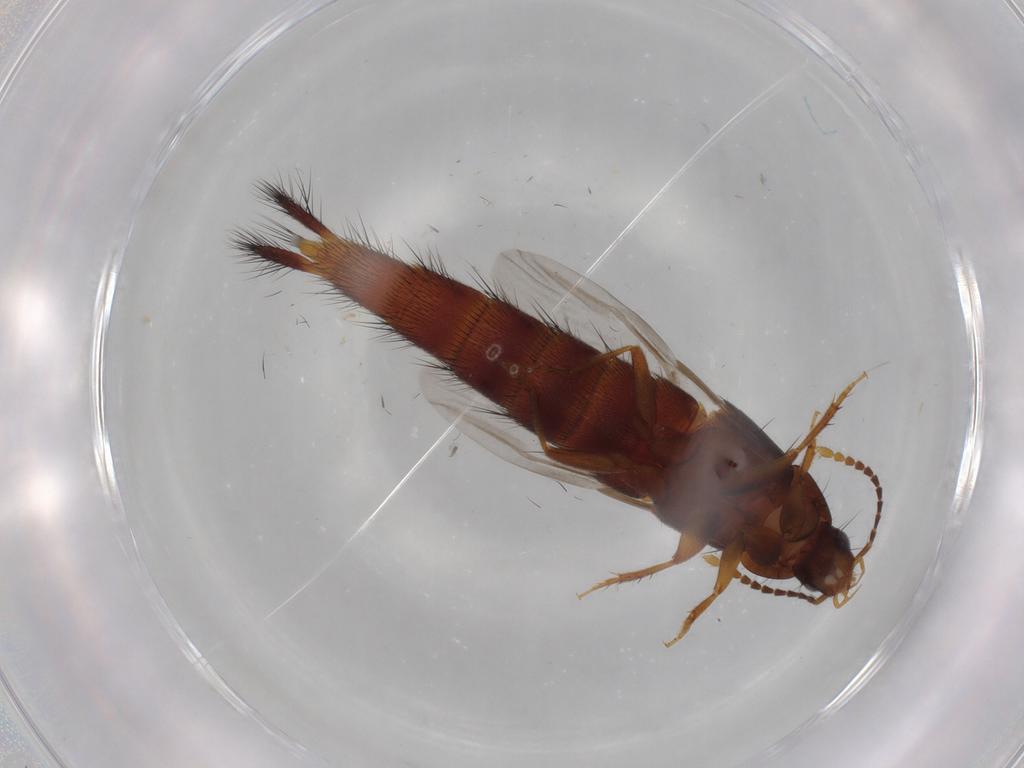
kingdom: Animalia
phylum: Arthropoda
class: Insecta
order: Coleoptera
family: Staphylinidae
